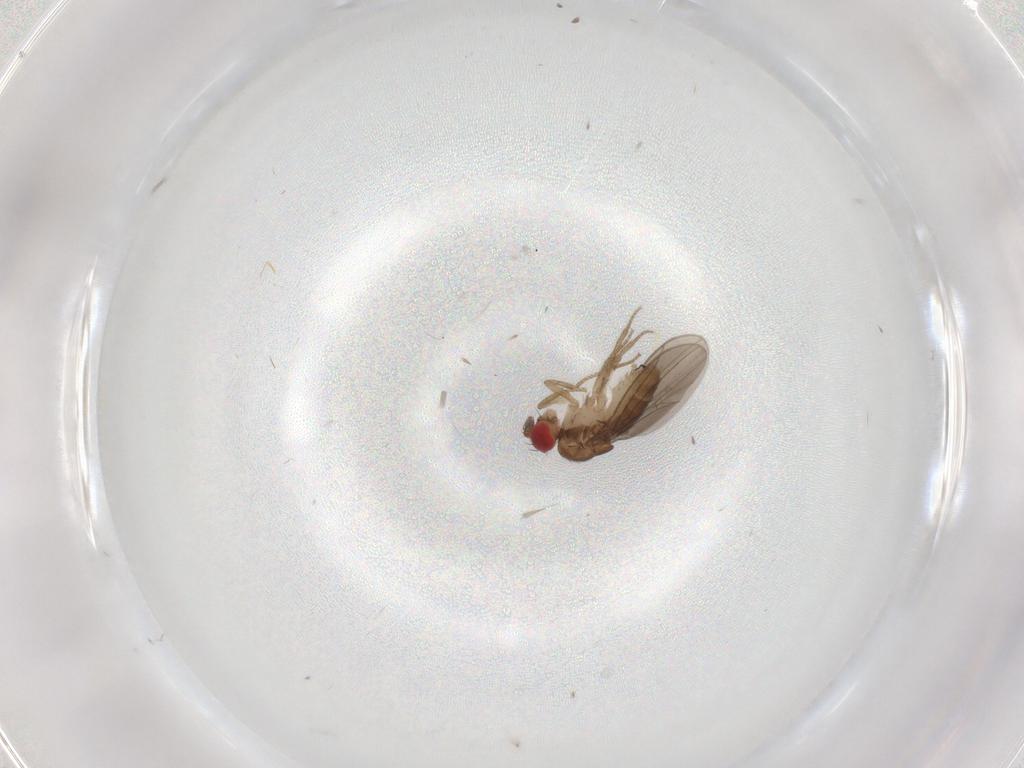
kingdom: Animalia
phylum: Arthropoda
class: Insecta
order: Diptera
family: Drosophilidae
